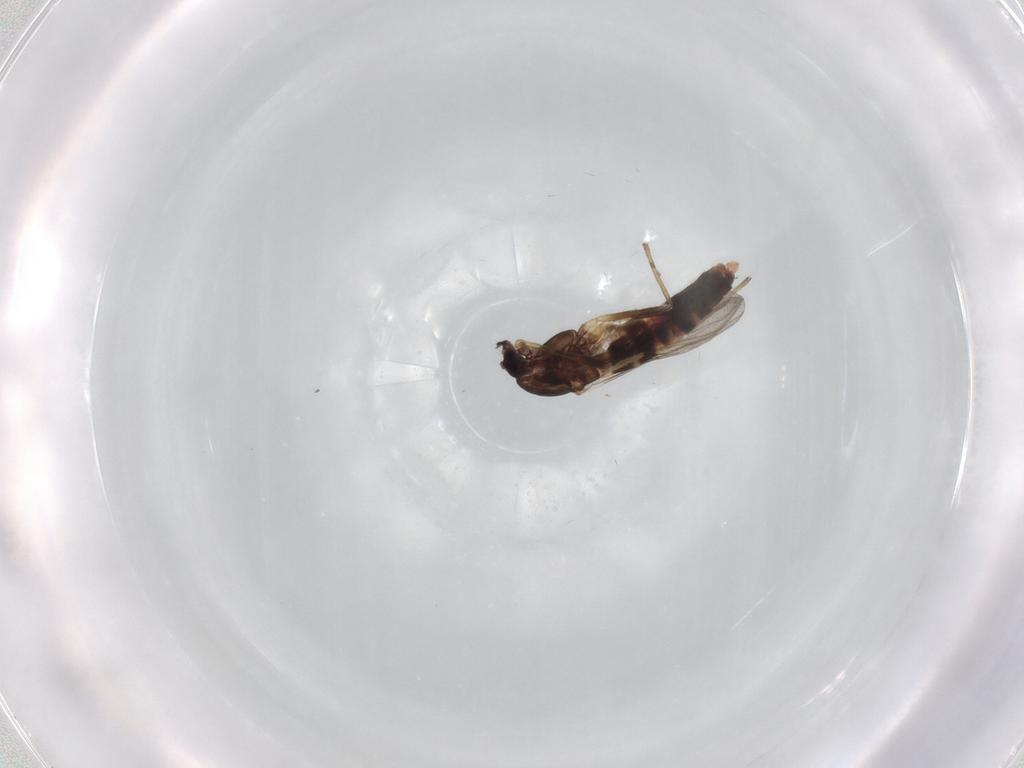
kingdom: Animalia
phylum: Arthropoda
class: Insecta
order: Diptera
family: Chironomidae
